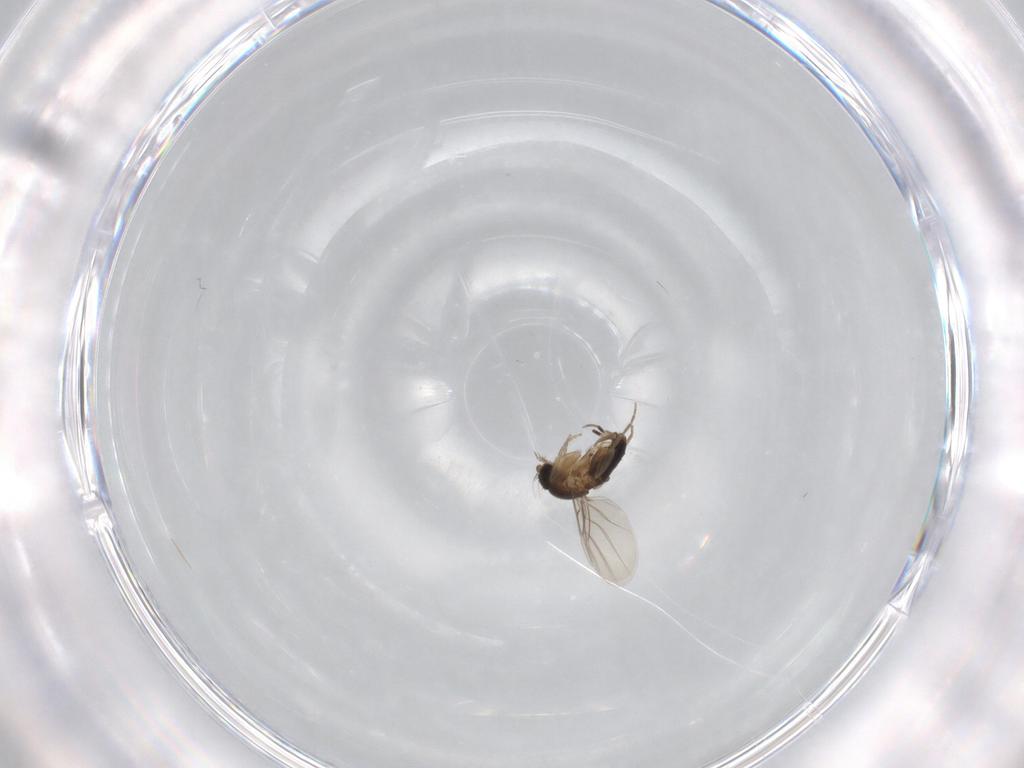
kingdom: Animalia
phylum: Arthropoda
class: Insecta
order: Diptera
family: Phoridae
